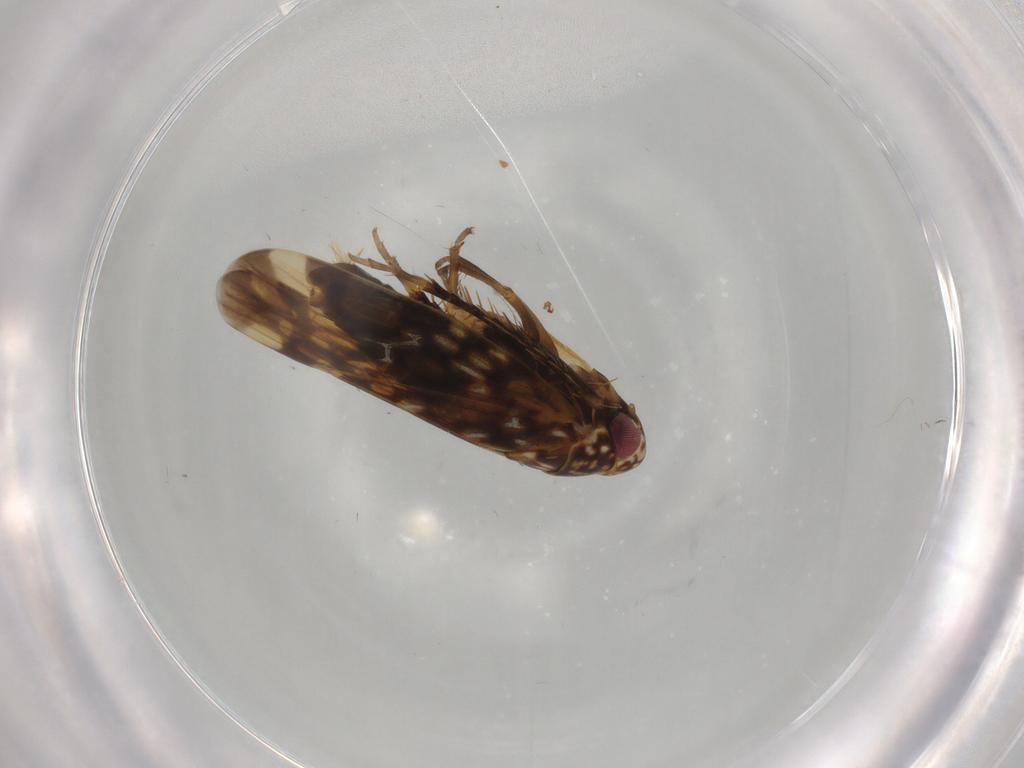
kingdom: Animalia
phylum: Arthropoda
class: Insecta
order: Hemiptera
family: Cicadellidae
